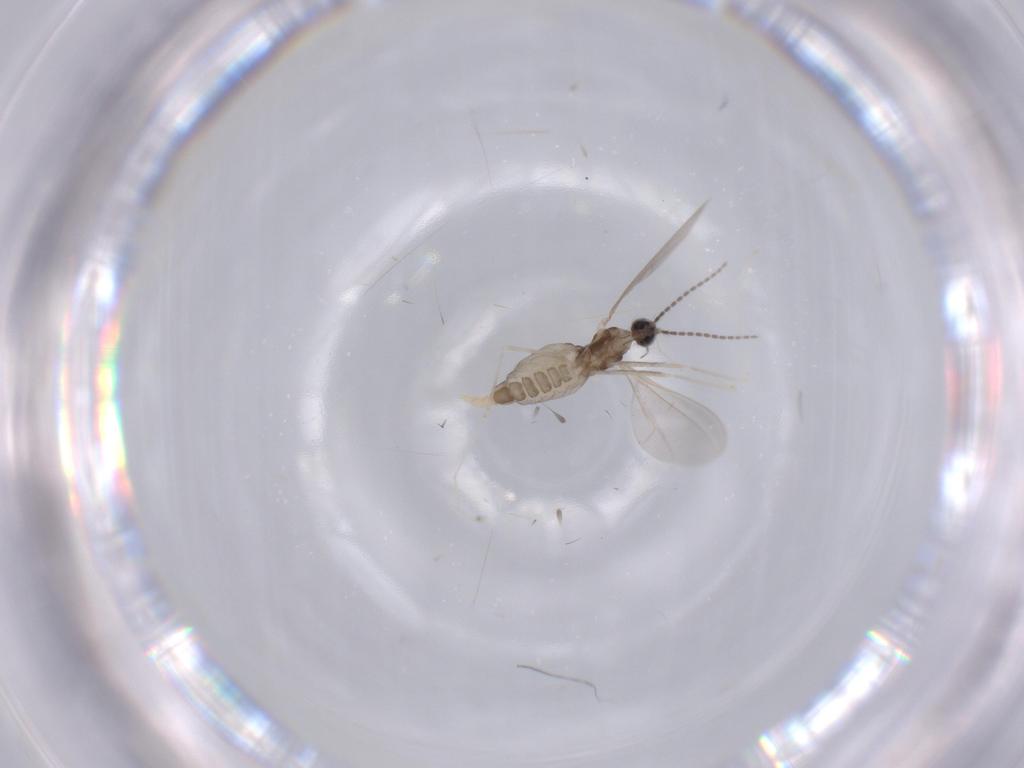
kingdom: Animalia
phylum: Arthropoda
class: Insecta
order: Diptera
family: Cecidomyiidae
